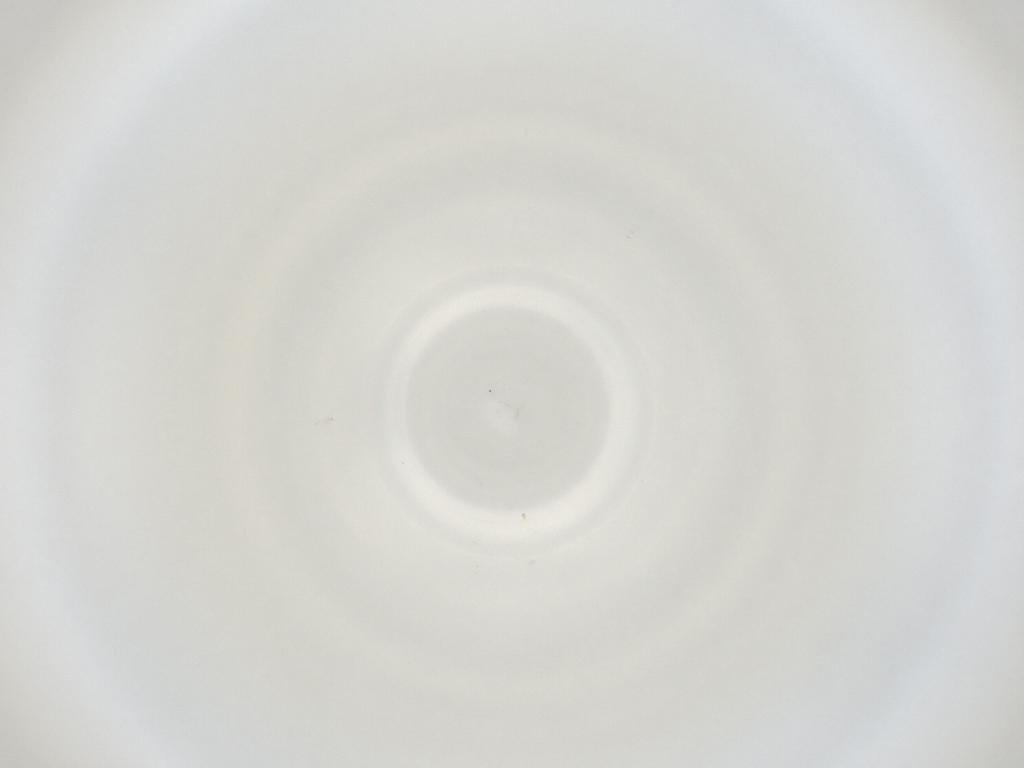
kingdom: Animalia
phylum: Arthropoda
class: Insecta
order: Diptera
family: Cecidomyiidae
